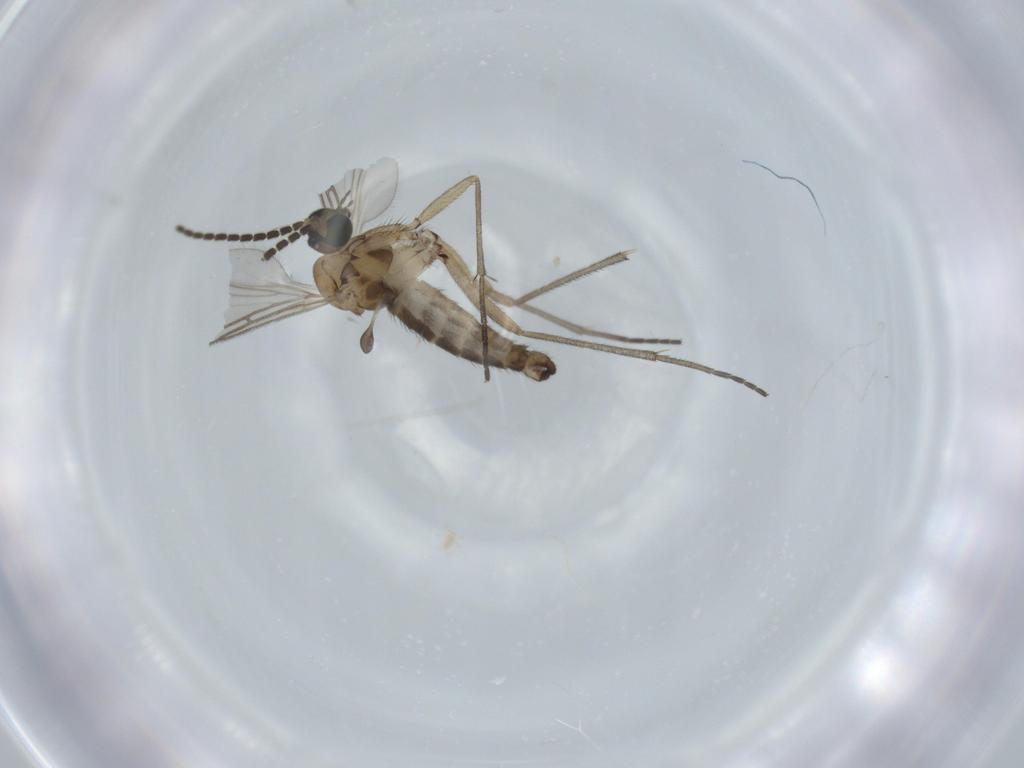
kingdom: Animalia
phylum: Arthropoda
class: Insecta
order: Diptera
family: Sciaridae
